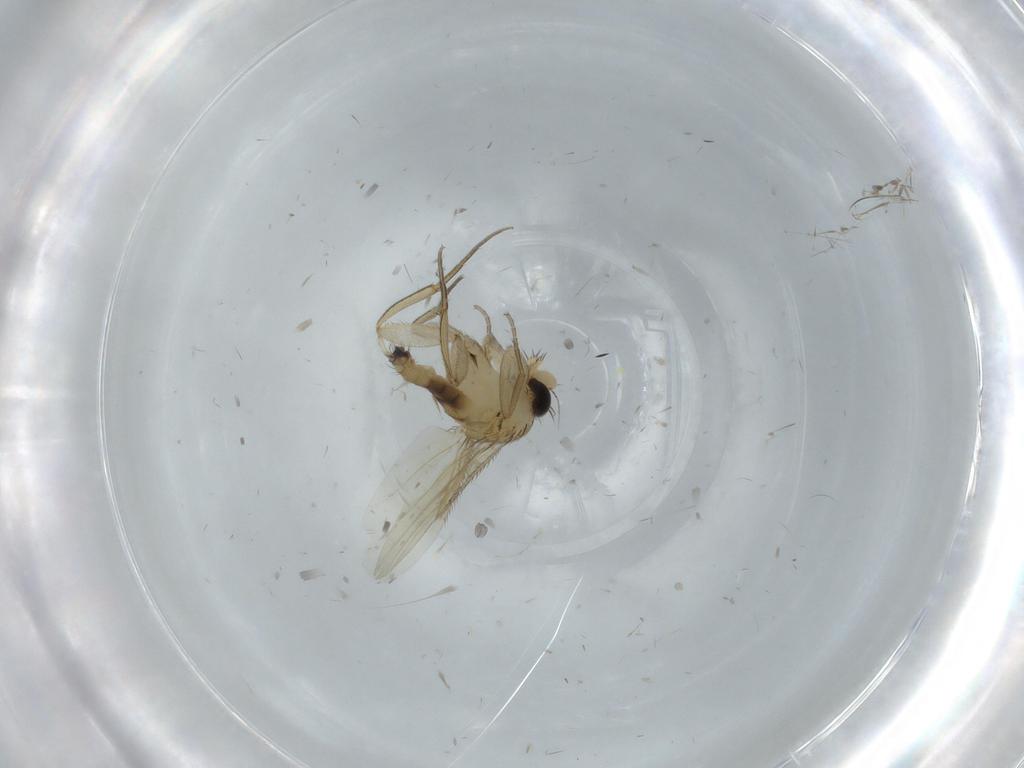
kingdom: Animalia
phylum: Arthropoda
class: Insecta
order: Diptera
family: Phoridae
